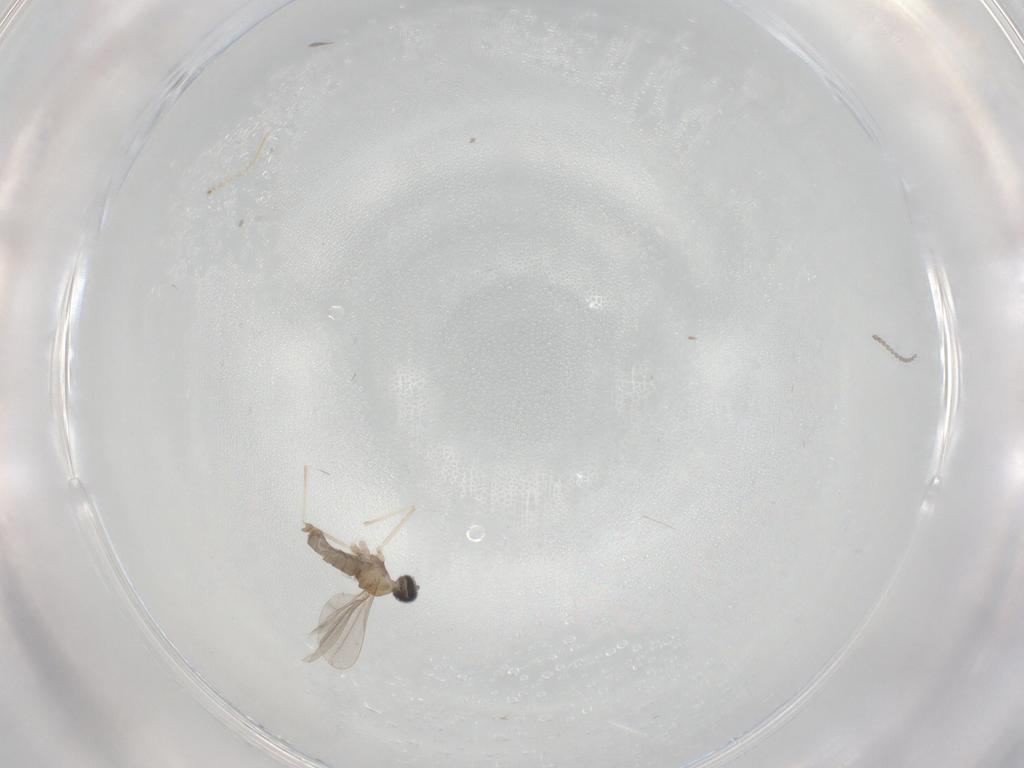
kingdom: Animalia
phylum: Arthropoda
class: Insecta
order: Diptera
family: Cecidomyiidae
